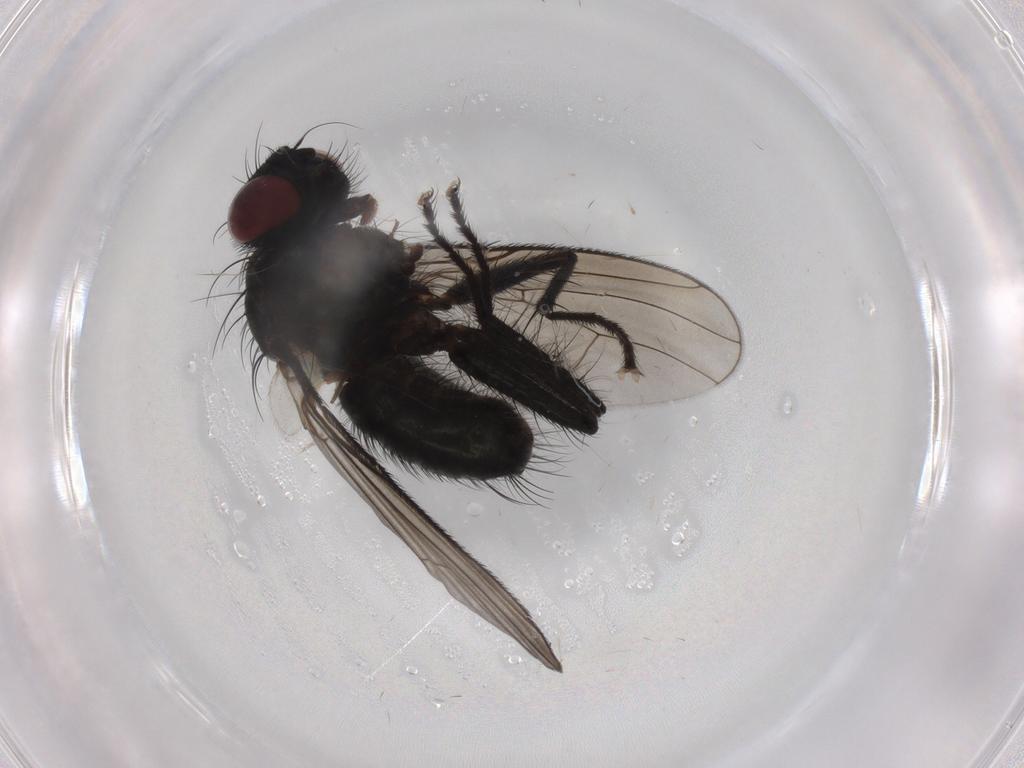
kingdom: Animalia
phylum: Arthropoda
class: Insecta
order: Diptera
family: Muscidae
